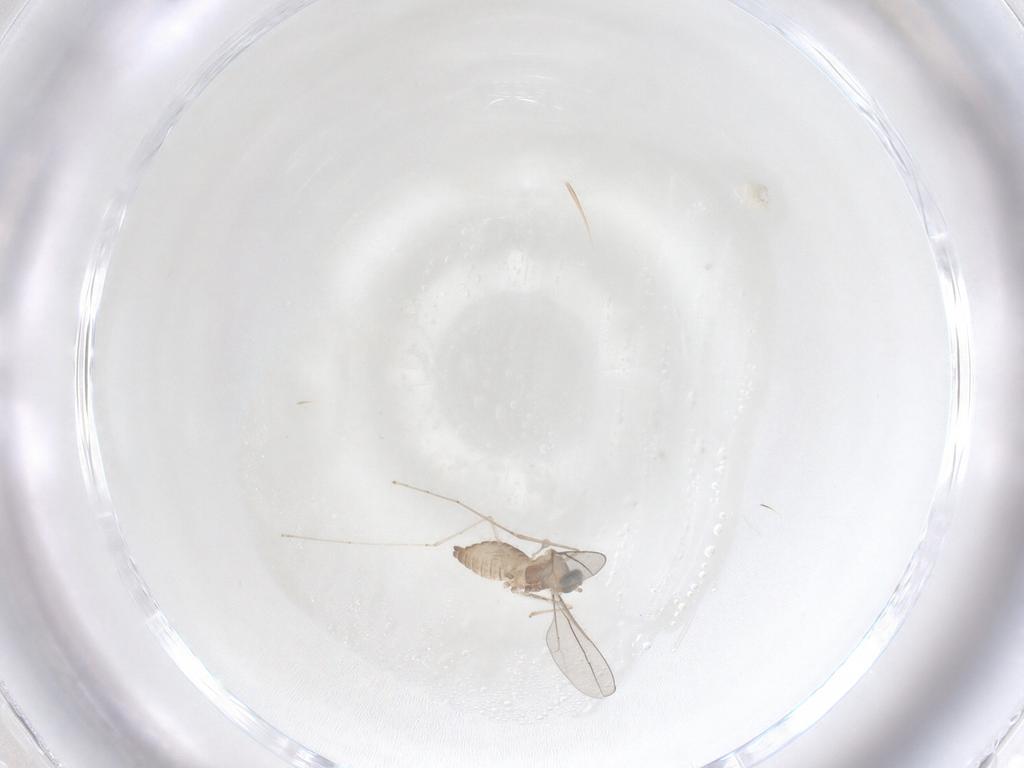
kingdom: Animalia
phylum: Arthropoda
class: Insecta
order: Diptera
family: Cecidomyiidae
